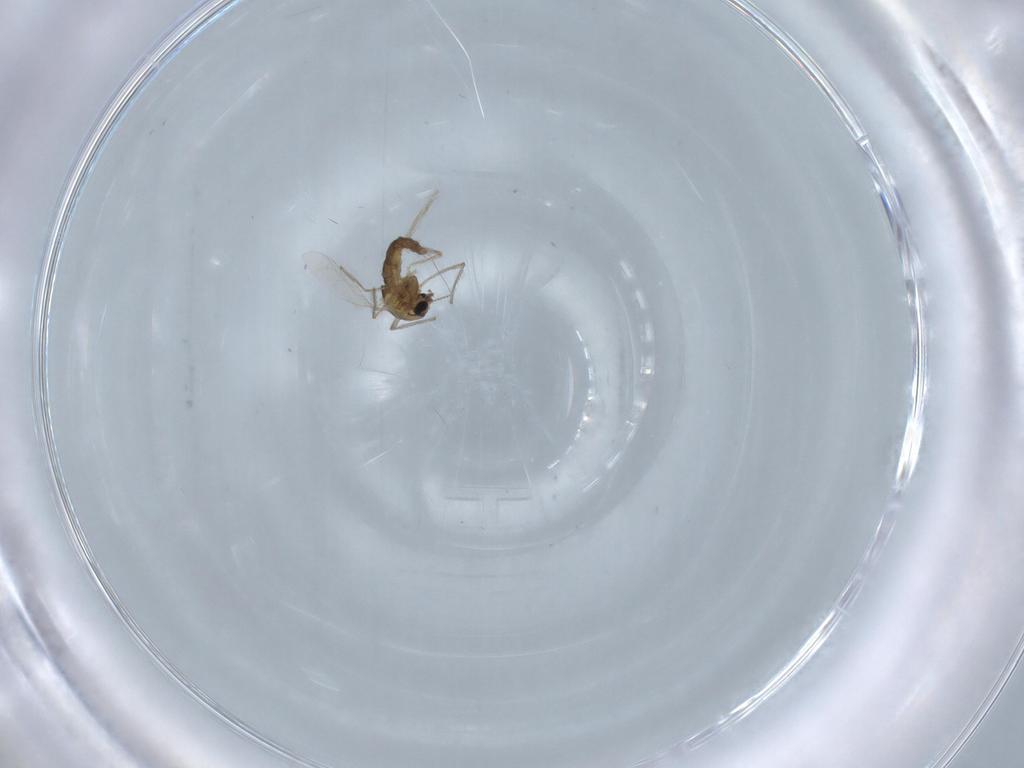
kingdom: Animalia
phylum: Arthropoda
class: Insecta
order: Diptera
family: Chironomidae
